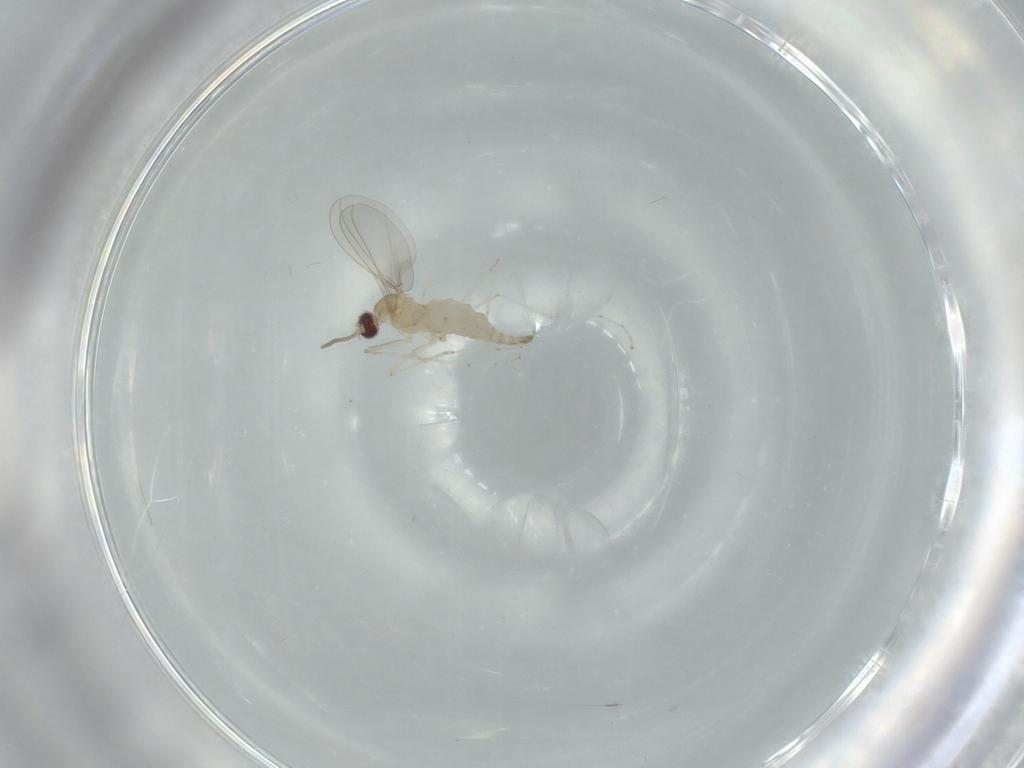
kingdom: Animalia
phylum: Arthropoda
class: Insecta
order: Diptera
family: Cecidomyiidae
